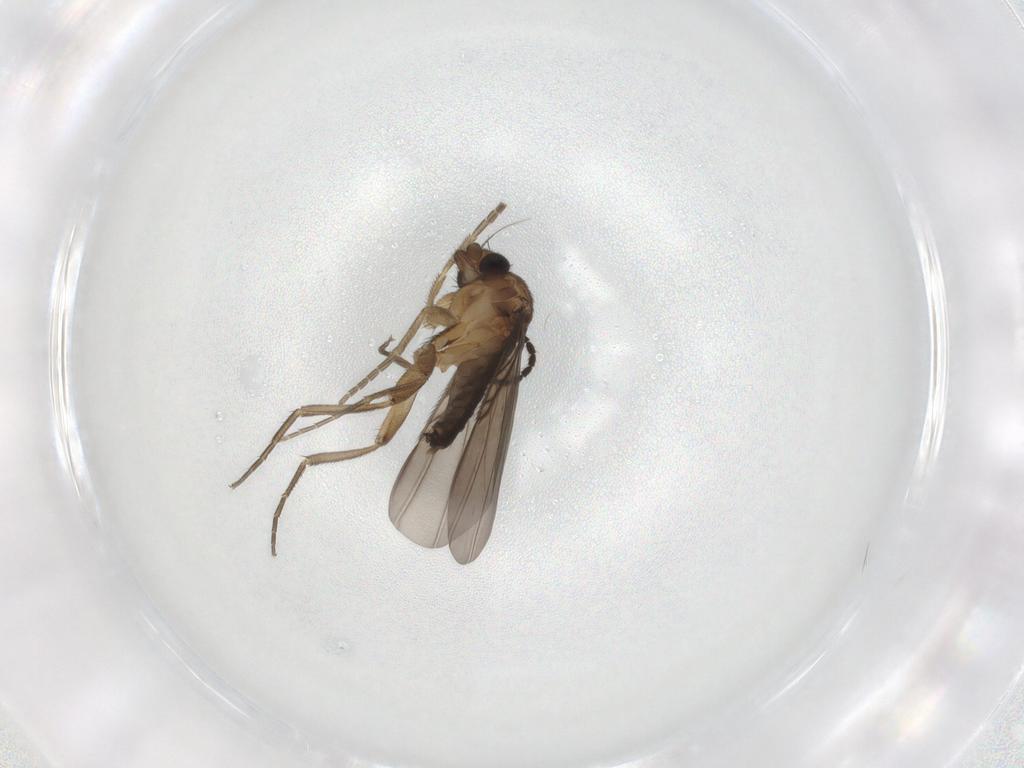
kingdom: Animalia
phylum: Arthropoda
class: Insecta
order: Diptera
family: Phoridae
